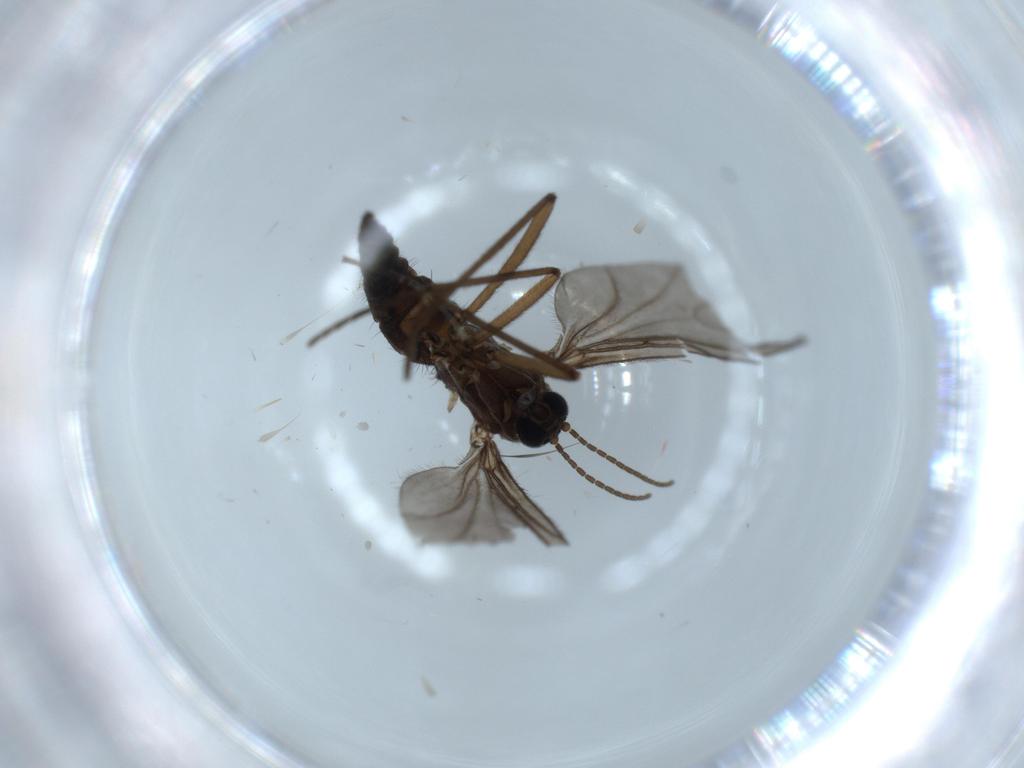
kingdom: Animalia
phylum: Arthropoda
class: Insecta
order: Diptera
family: Sciaridae
